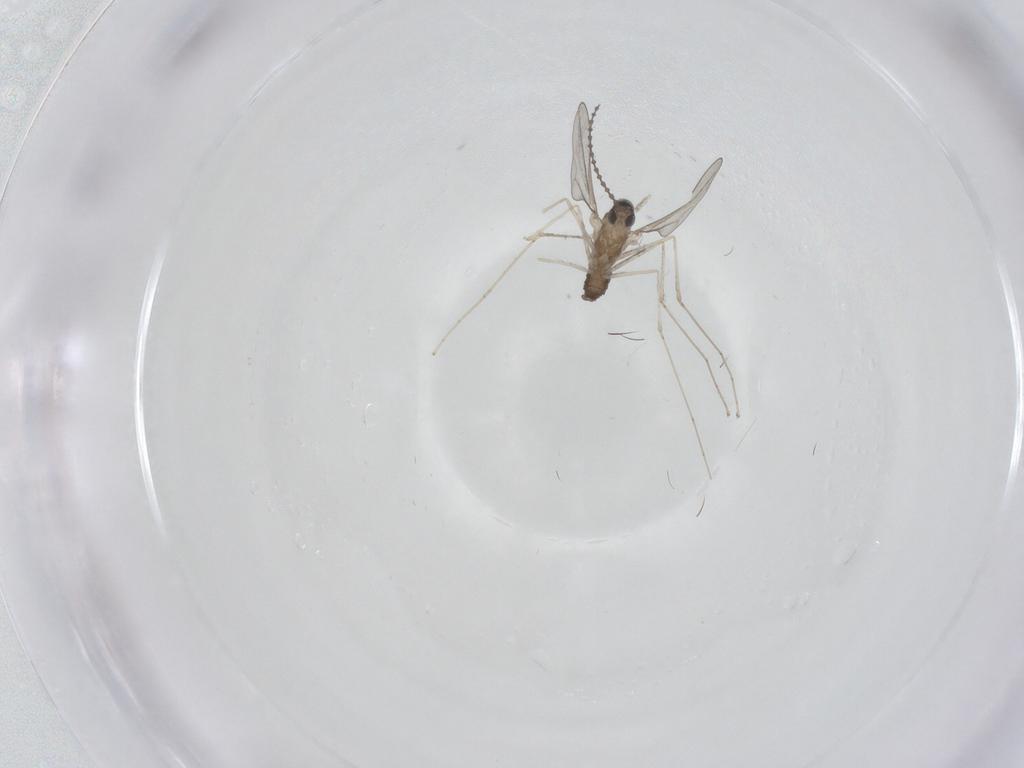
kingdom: Animalia
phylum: Arthropoda
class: Insecta
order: Diptera
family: Cecidomyiidae
